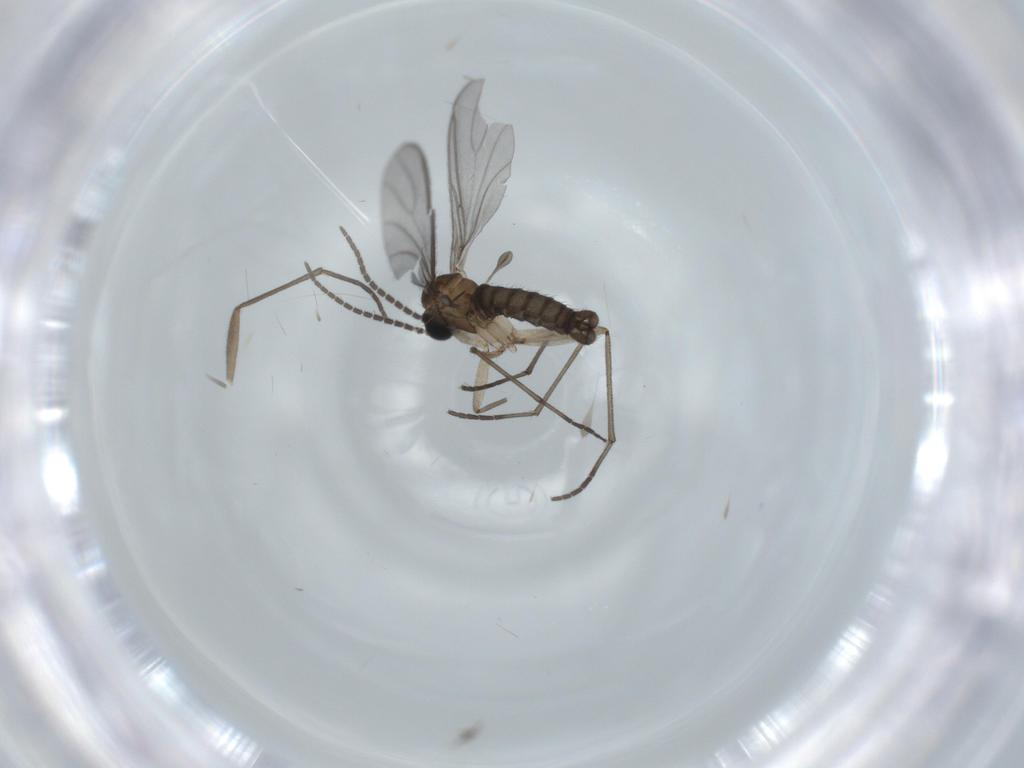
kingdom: Animalia
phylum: Arthropoda
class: Insecta
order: Diptera
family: Sciaridae
